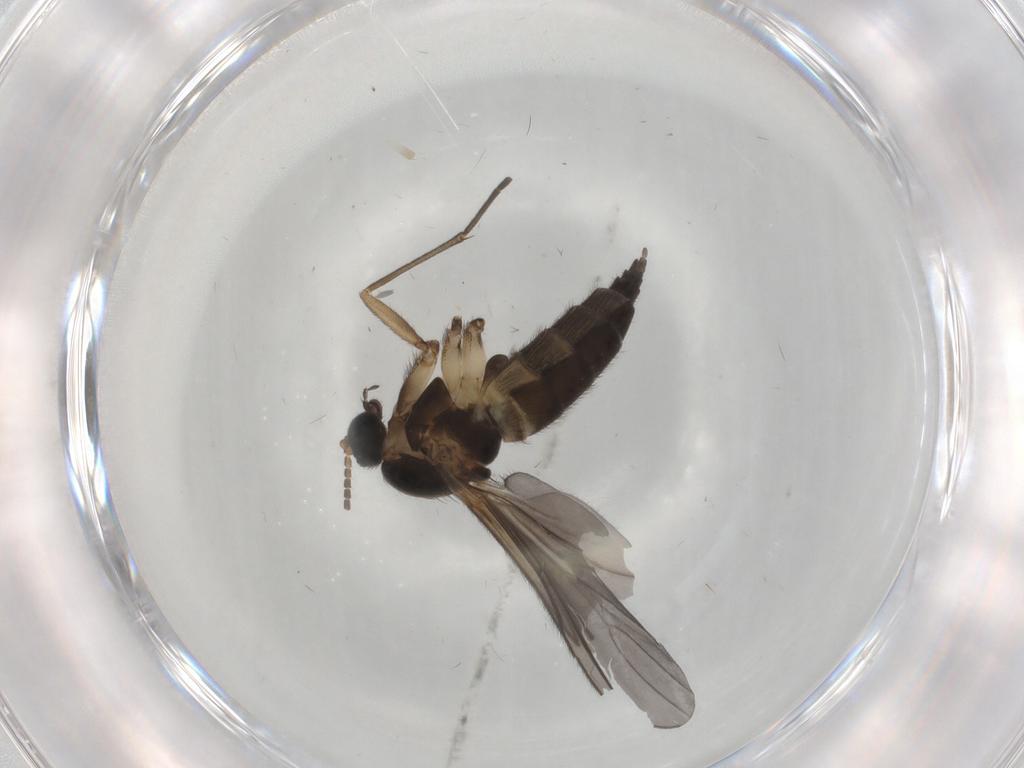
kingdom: Animalia
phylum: Arthropoda
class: Insecta
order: Diptera
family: Sciaridae
